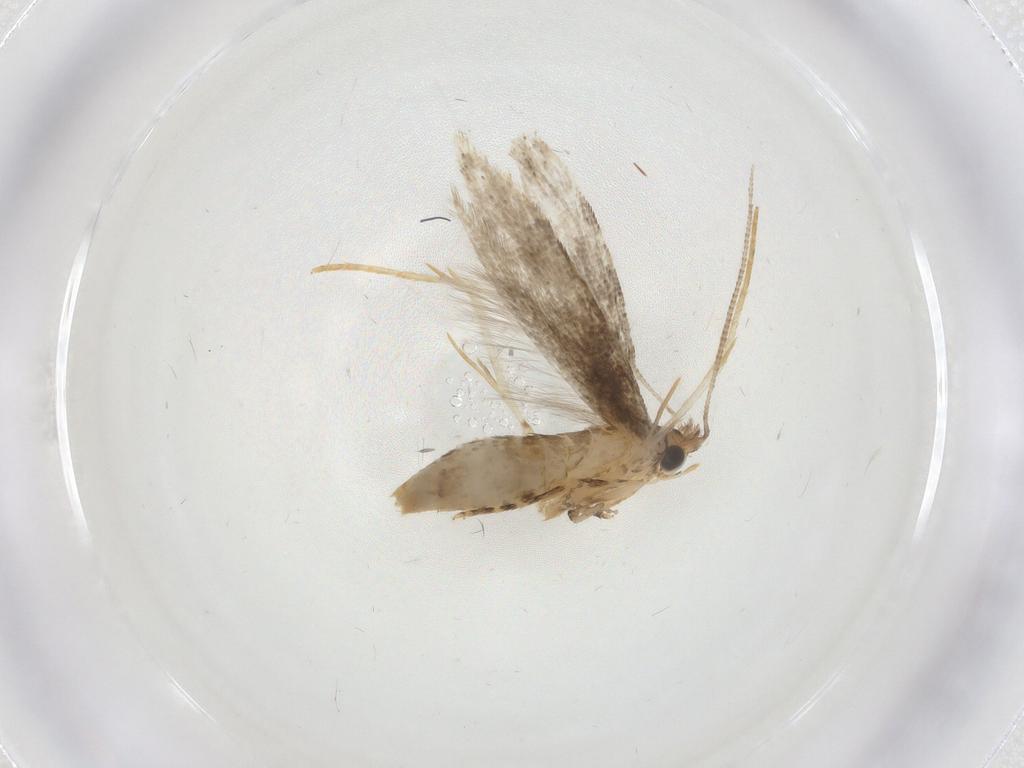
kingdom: Animalia
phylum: Arthropoda
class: Insecta
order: Lepidoptera
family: Tineidae
